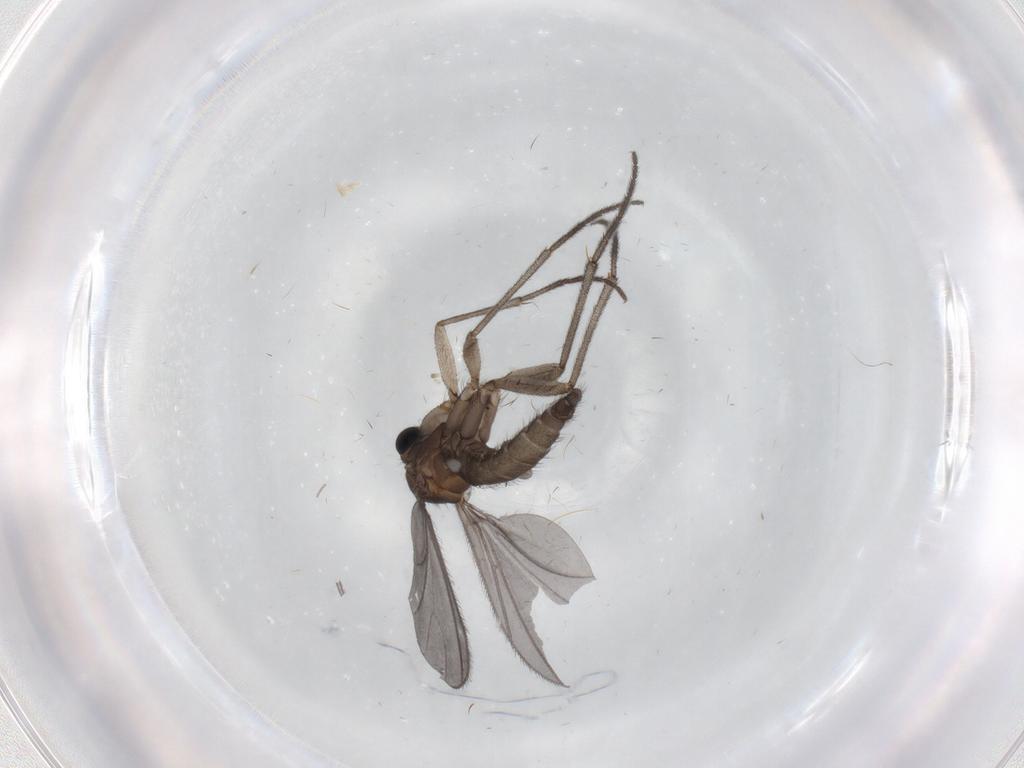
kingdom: Animalia
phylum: Arthropoda
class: Insecta
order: Diptera
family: Sciaridae
